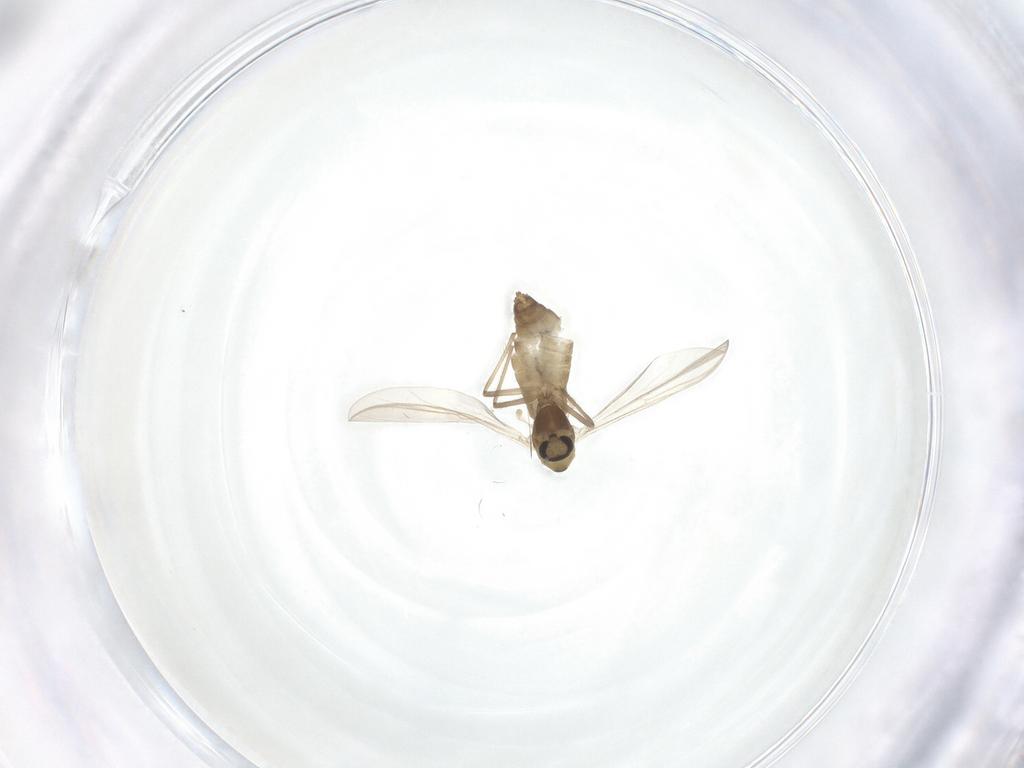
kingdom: Animalia
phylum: Arthropoda
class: Insecta
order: Diptera
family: Chironomidae
